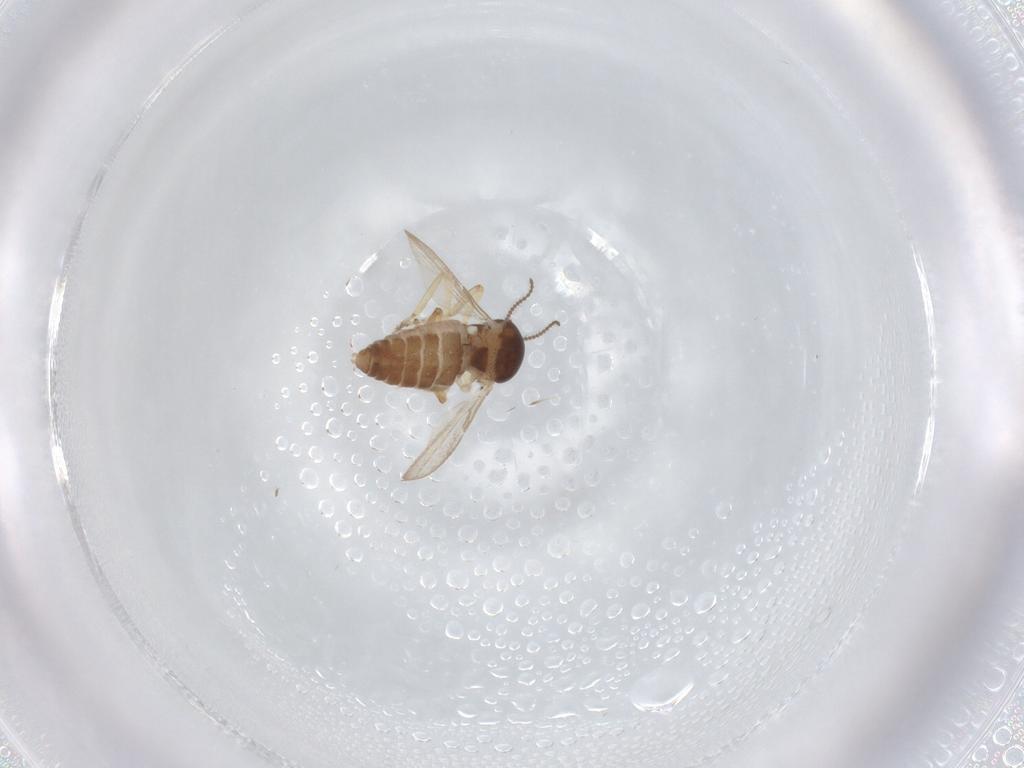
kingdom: Animalia
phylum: Arthropoda
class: Insecta
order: Diptera
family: Ceratopogonidae
